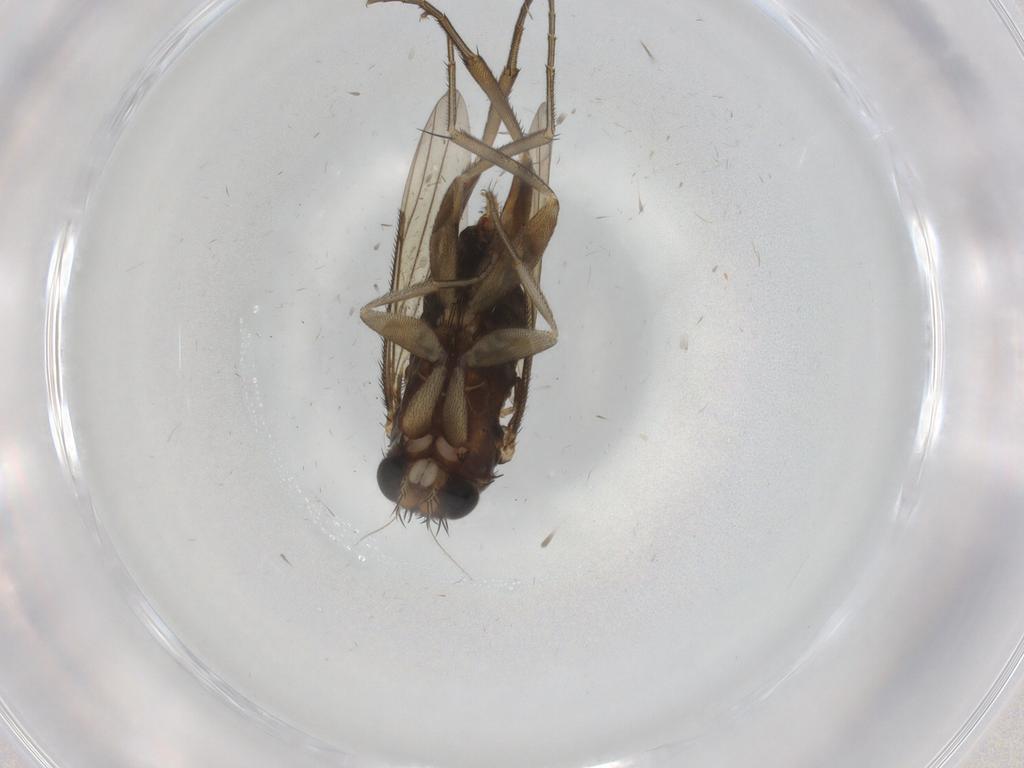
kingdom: Animalia
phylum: Arthropoda
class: Insecta
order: Diptera
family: Phoridae
